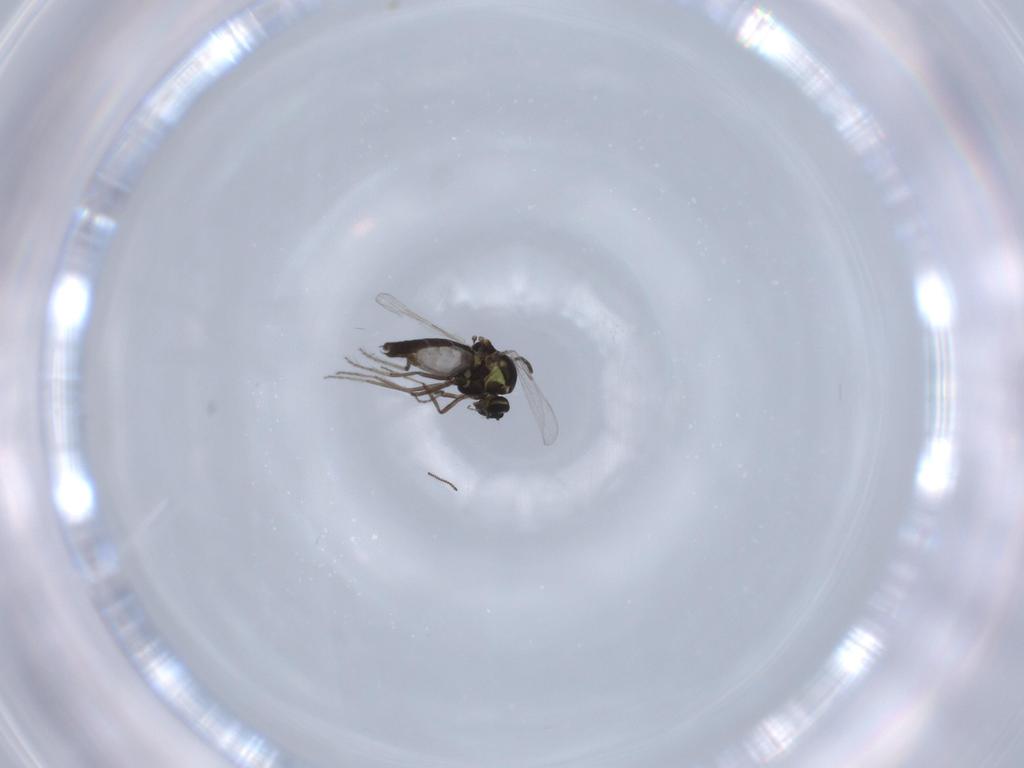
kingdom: Animalia
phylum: Arthropoda
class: Insecta
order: Diptera
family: Ceratopogonidae
